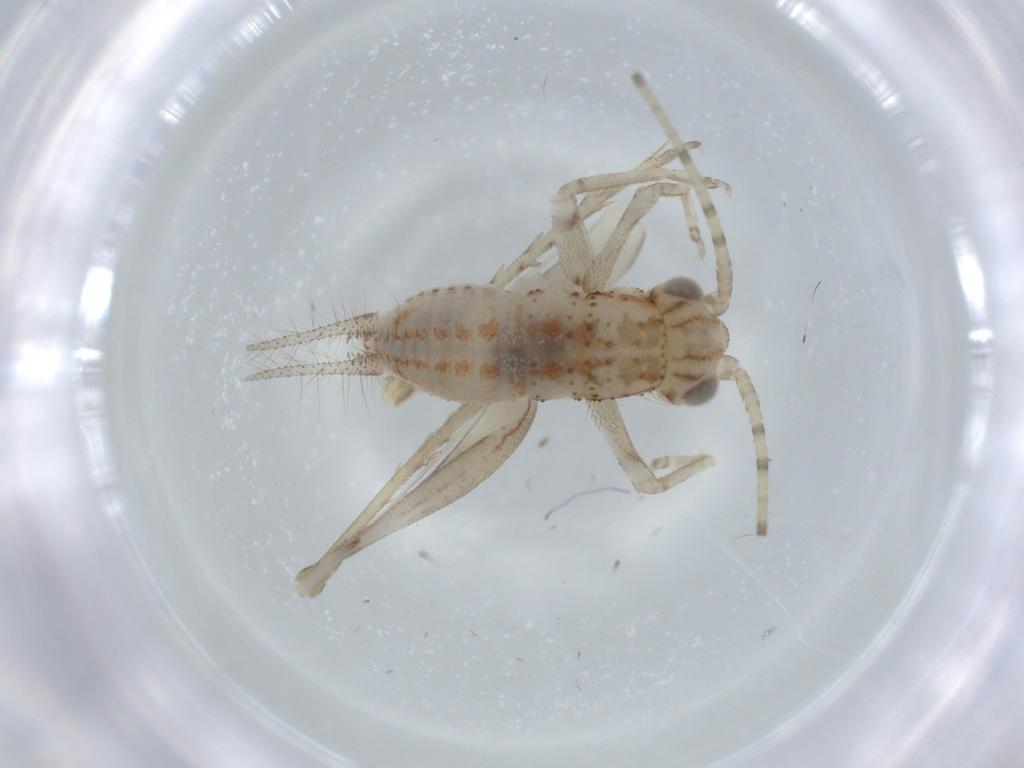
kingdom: Animalia
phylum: Arthropoda
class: Insecta
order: Orthoptera
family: Trigonidiidae
